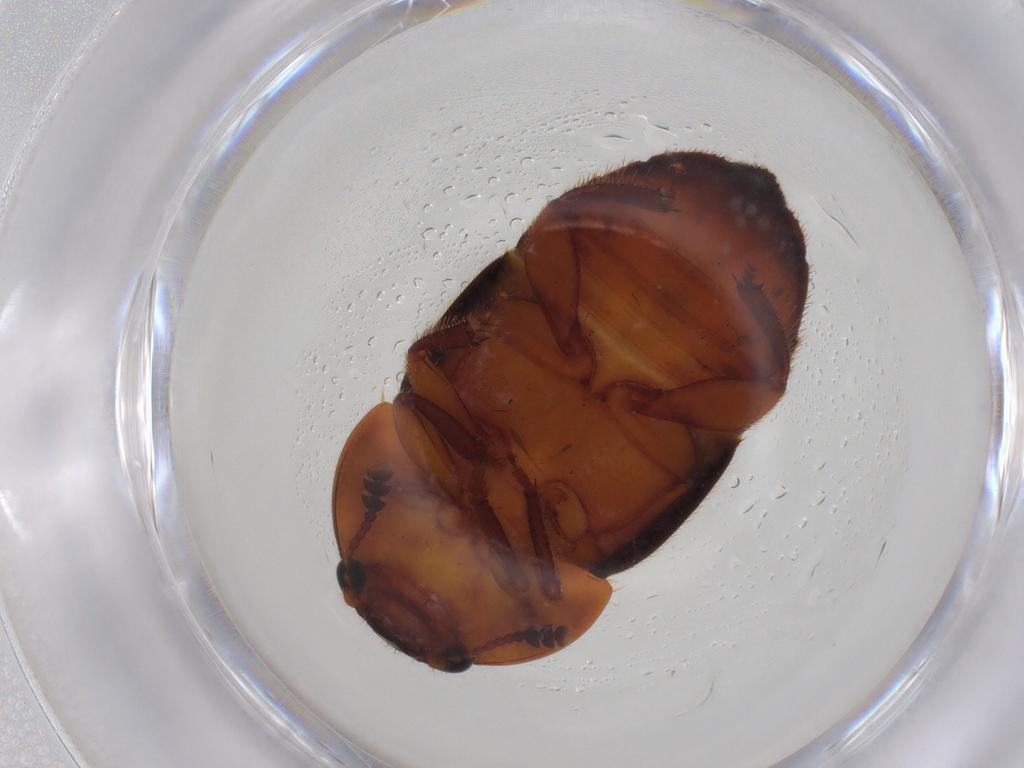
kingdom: Animalia
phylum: Arthropoda
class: Insecta
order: Coleoptera
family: Nitidulidae
